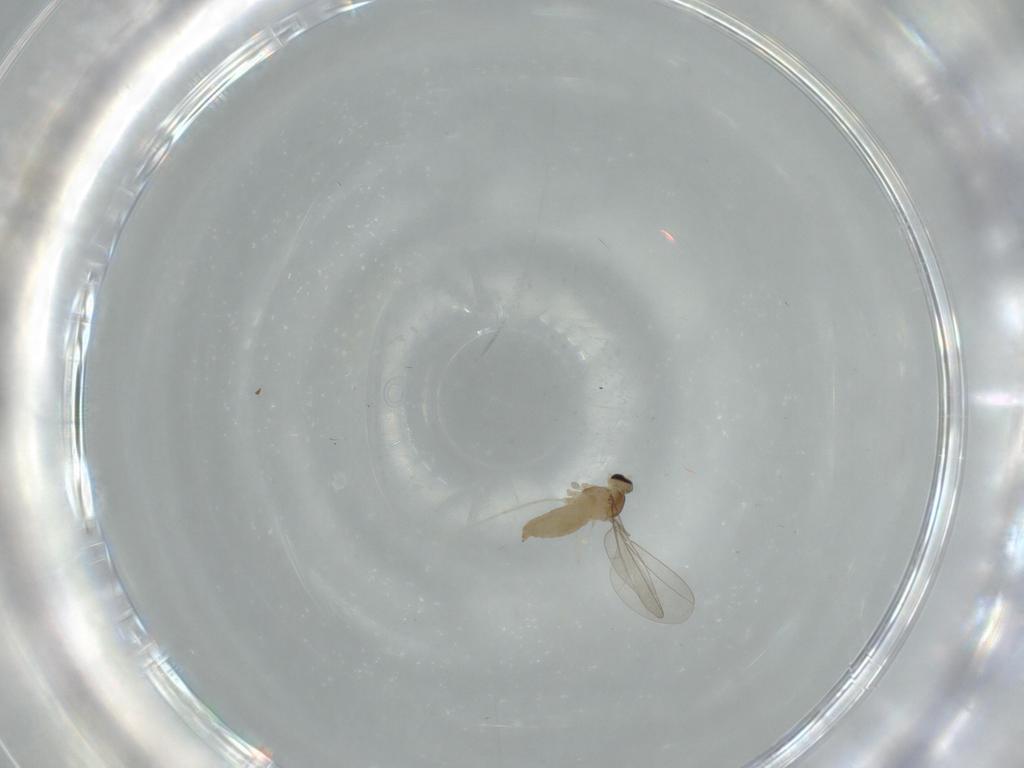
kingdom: Animalia
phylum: Arthropoda
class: Insecta
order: Diptera
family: Cecidomyiidae
